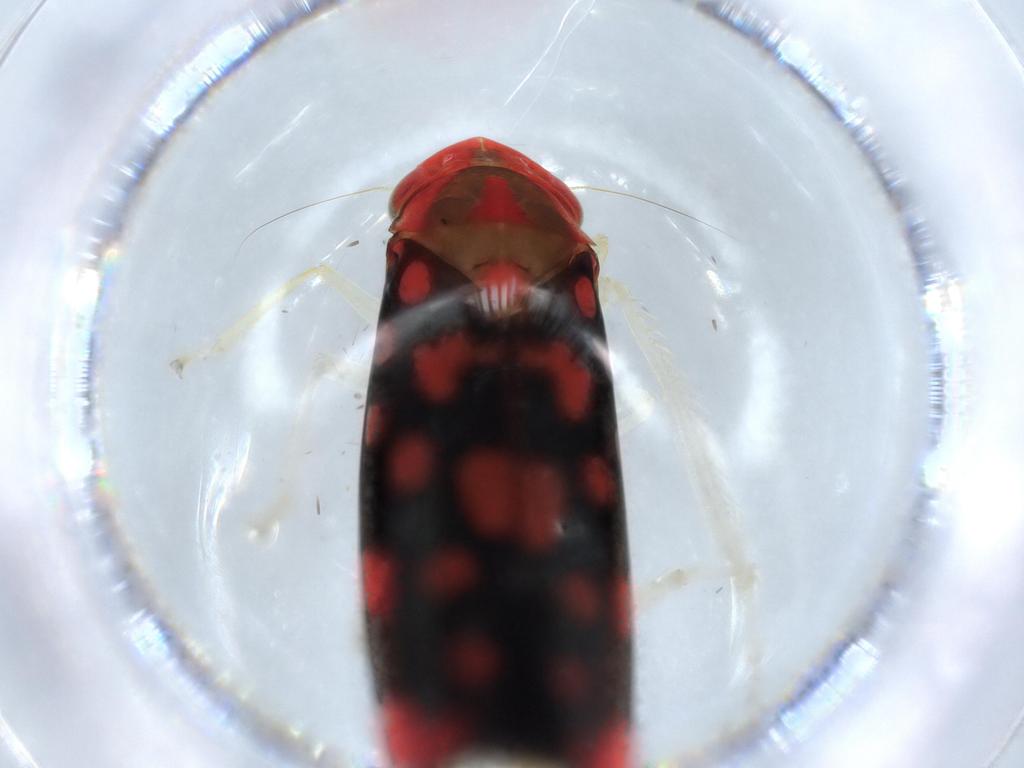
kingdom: Animalia
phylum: Arthropoda
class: Insecta
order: Hemiptera
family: Cicadellidae
